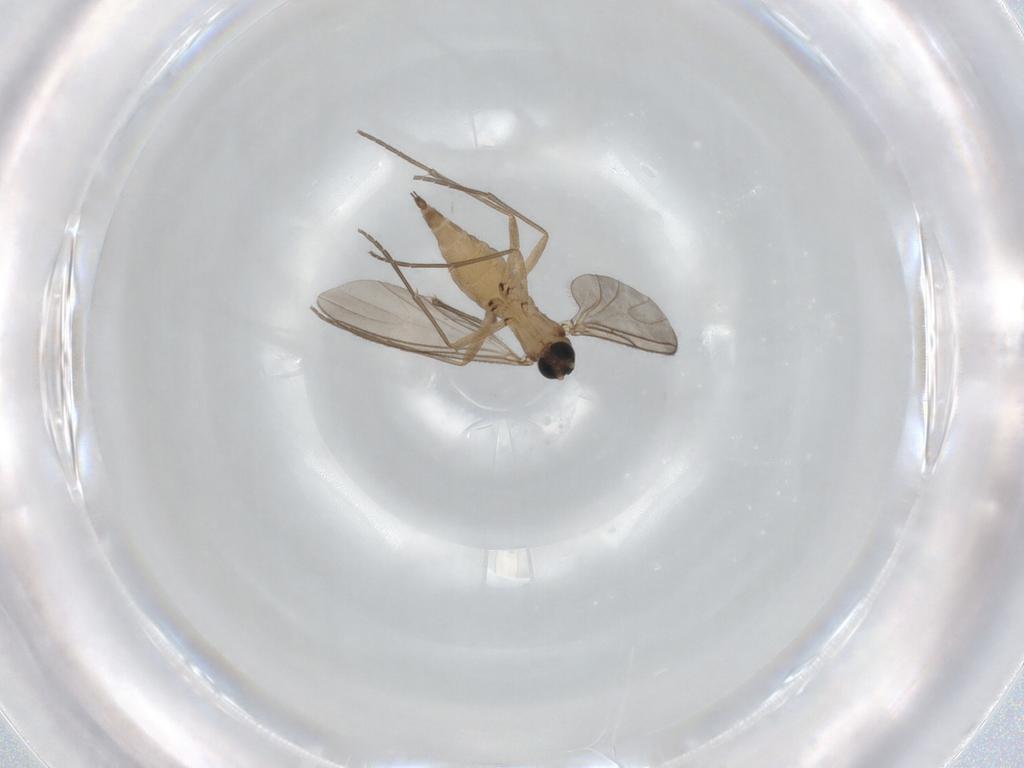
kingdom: Animalia
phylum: Arthropoda
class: Insecta
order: Diptera
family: Sciaridae
